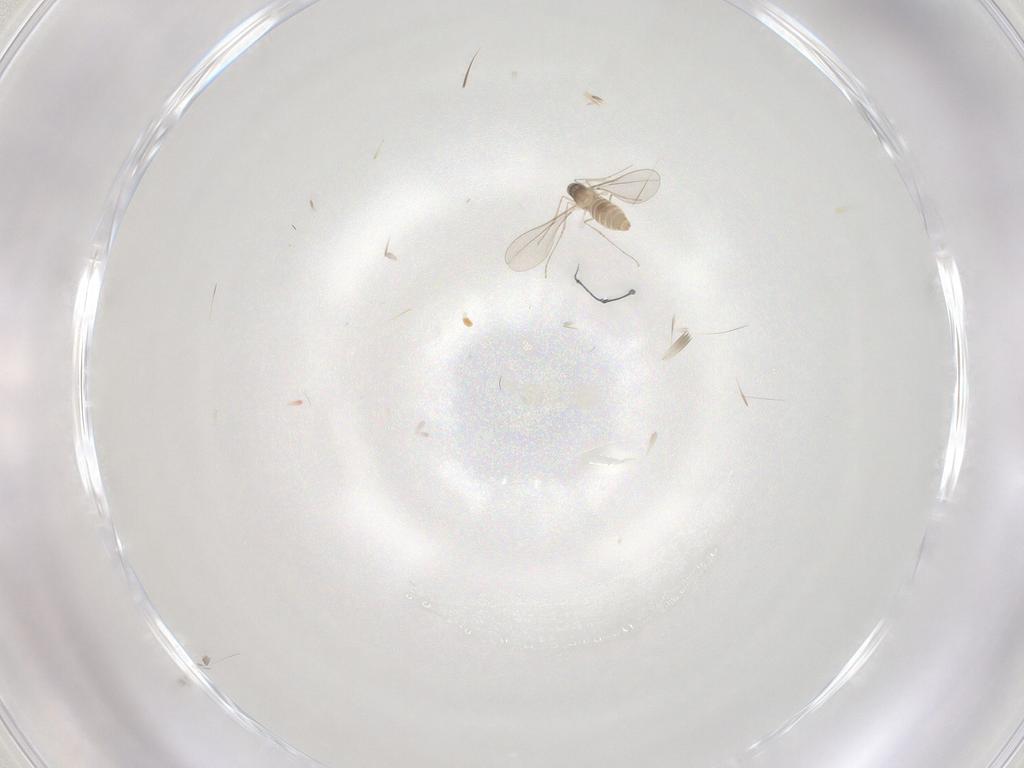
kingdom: Animalia
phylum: Arthropoda
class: Insecta
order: Diptera
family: Cecidomyiidae
